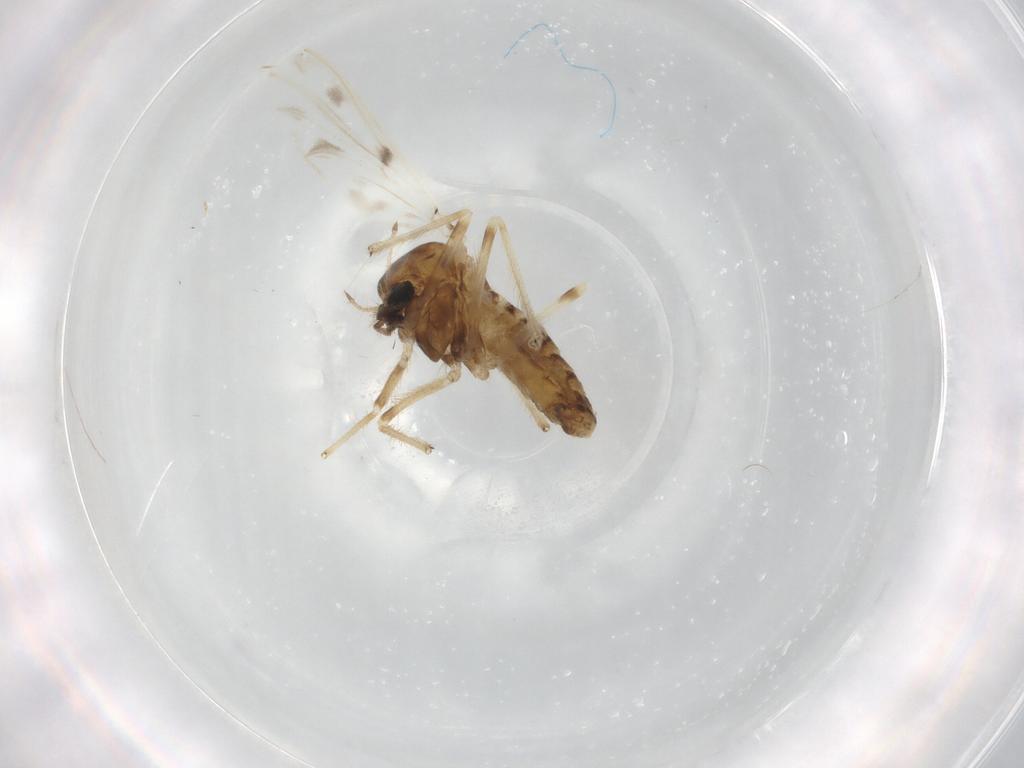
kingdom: Animalia
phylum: Arthropoda
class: Insecta
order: Diptera
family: Chironomidae
